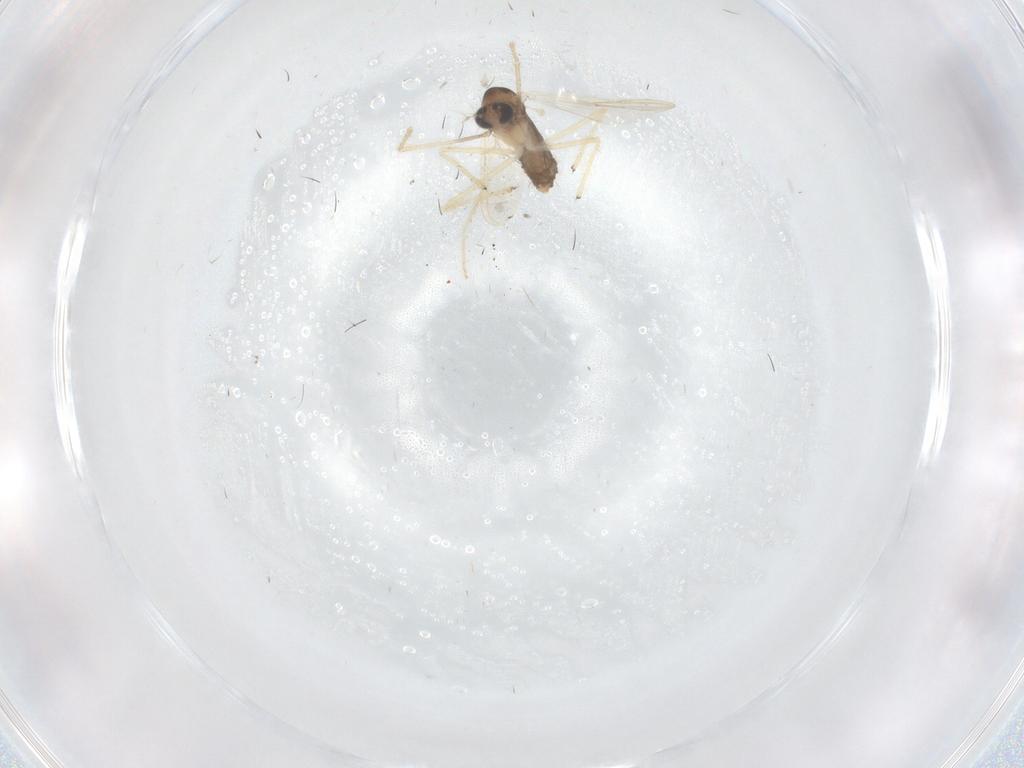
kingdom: Animalia
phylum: Arthropoda
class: Insecta
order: Diptera
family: Chironomidae
